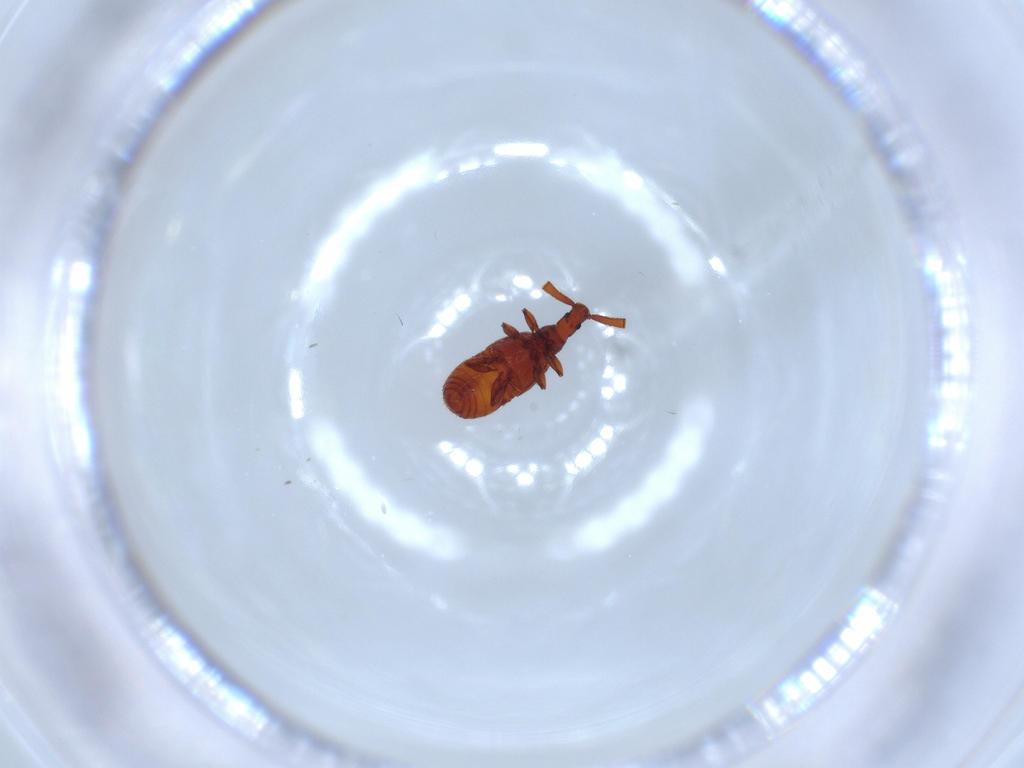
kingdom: Animalia
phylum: Arthropoda
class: Insecta
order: Coleoptera
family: Staphylinidae
